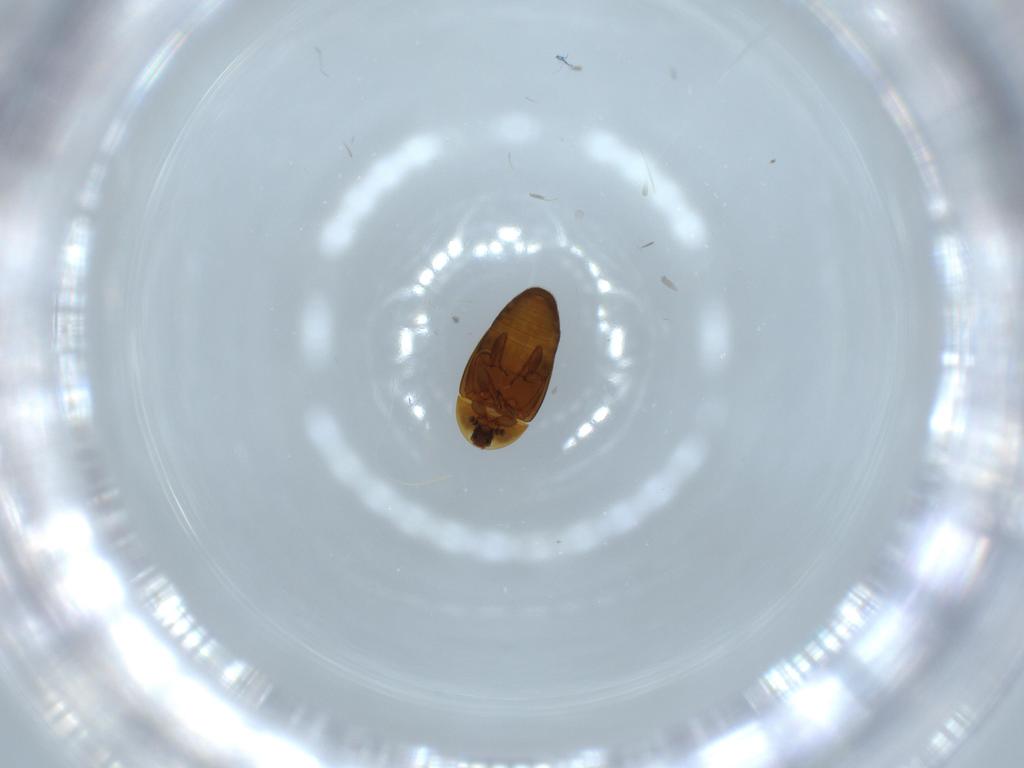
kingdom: Animalia
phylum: Arthropoda
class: Insecta
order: Coleoptera
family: Corylophidae
